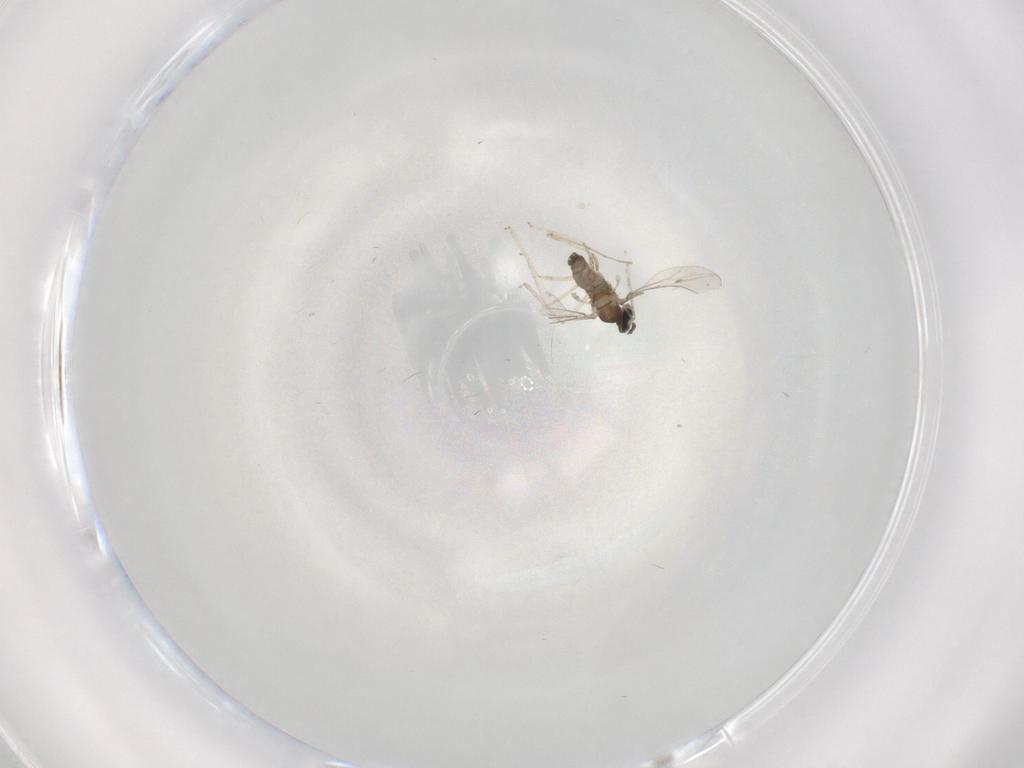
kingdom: Animalia
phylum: Arthropoda
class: Insecta
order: Diptera
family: Cecidomyiidae
